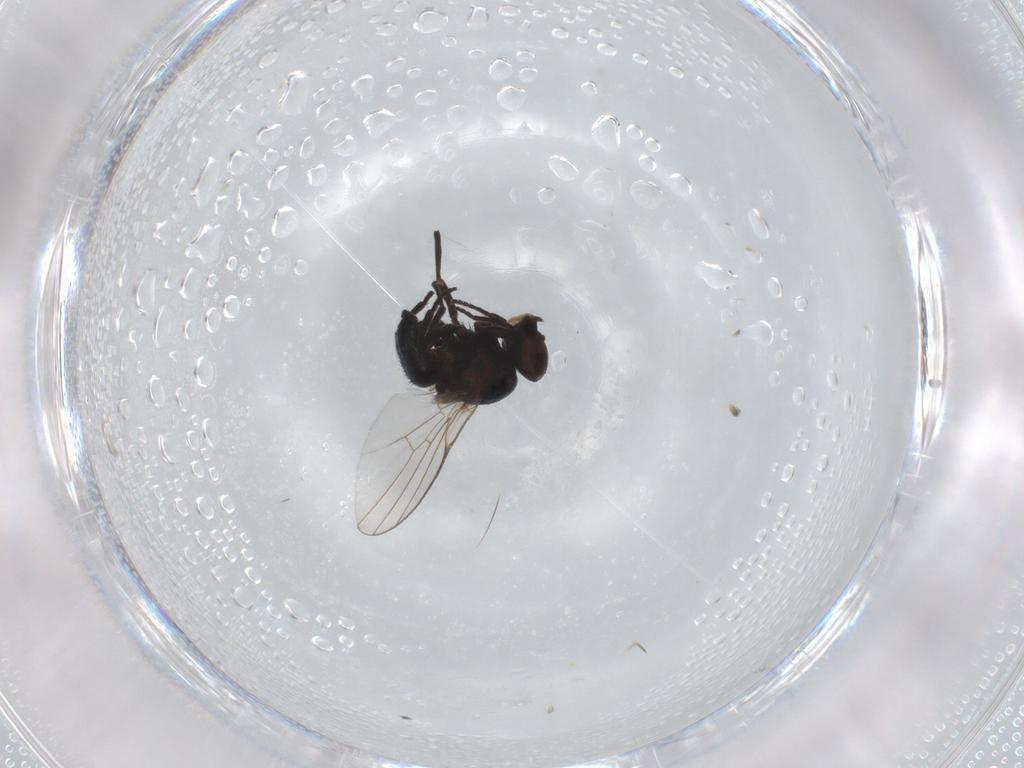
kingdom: Animalia
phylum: Arthropoda
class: Insecta
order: Diptera
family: Agromyzidae
